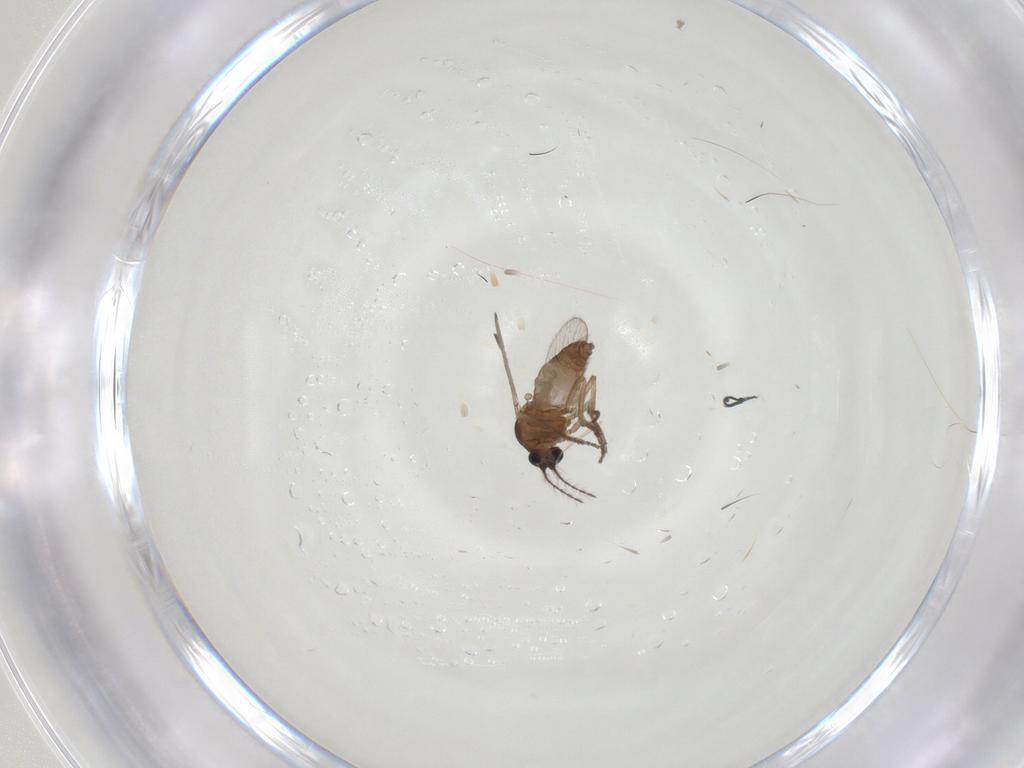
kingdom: Animalia
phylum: Arthropoda
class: Insecta
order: Diptera
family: Ceratopogonidae
